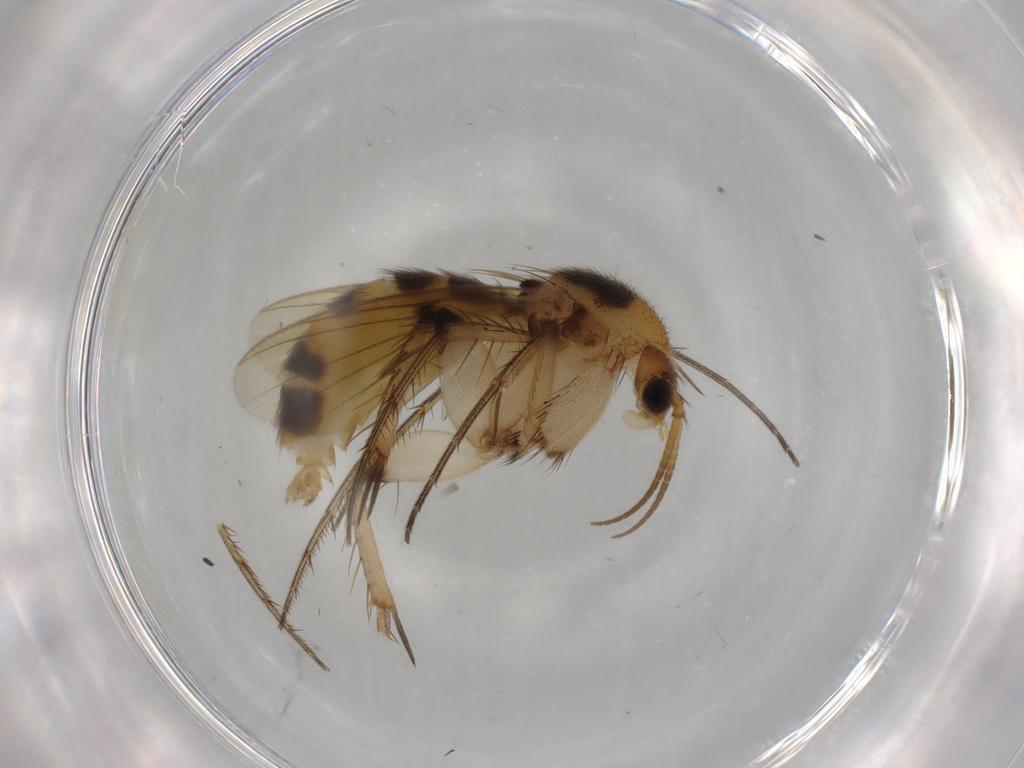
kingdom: Animalia
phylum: Arthropoda
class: Insecta
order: Diptera
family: Mycetophilidae
